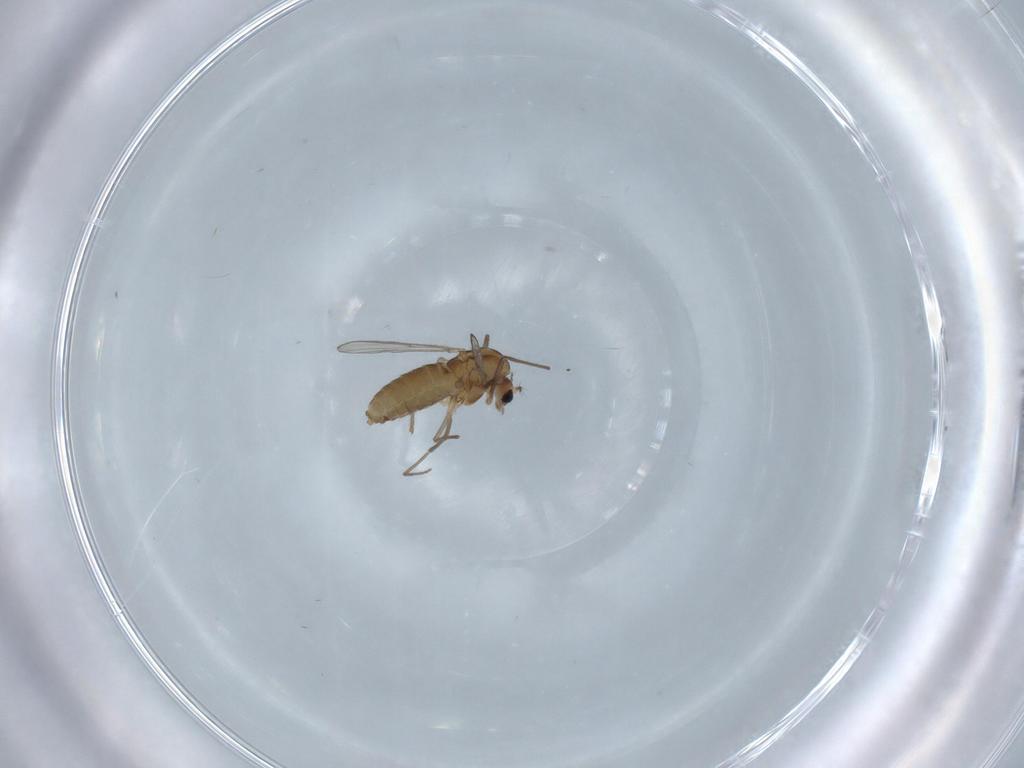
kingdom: Animalia
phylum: Arthropoda
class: Insecta
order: Diptera
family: Chironomidae
